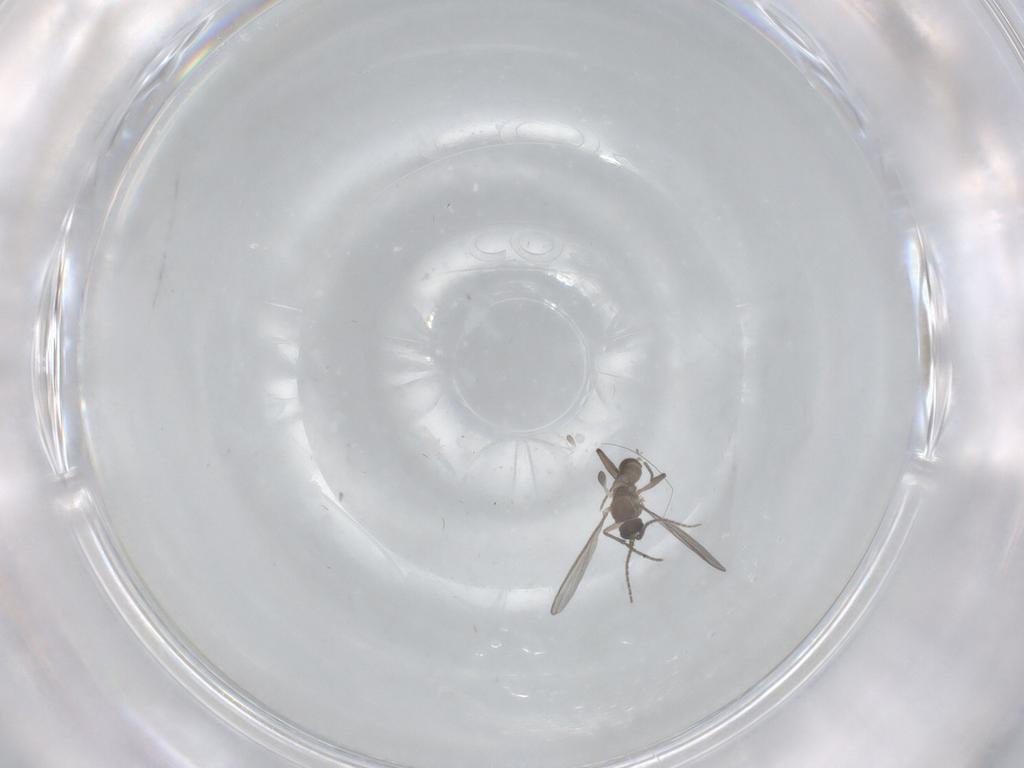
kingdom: Animalia
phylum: Arthropoda
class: Insecta
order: Diptera
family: Sciaridae
